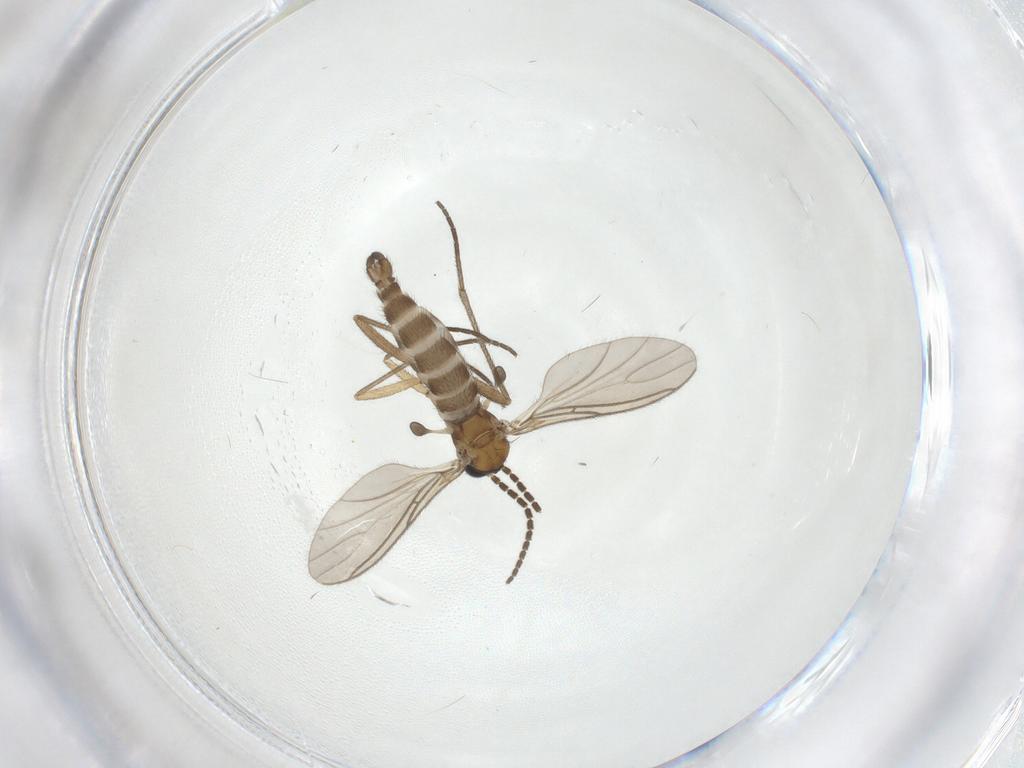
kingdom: Animalia
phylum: Arthropoda
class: Insecta
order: Diptera
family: Sciaridae
